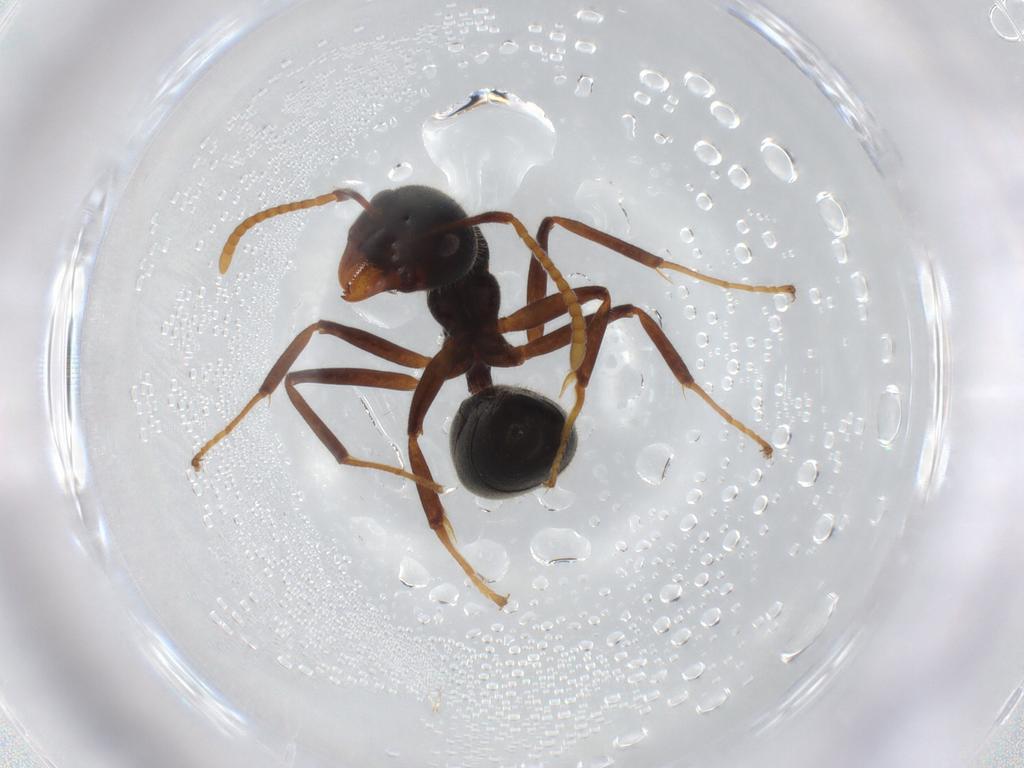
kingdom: Animalia
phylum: Arthropoda
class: Insecta
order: Hymenoptera
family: Formicidae
